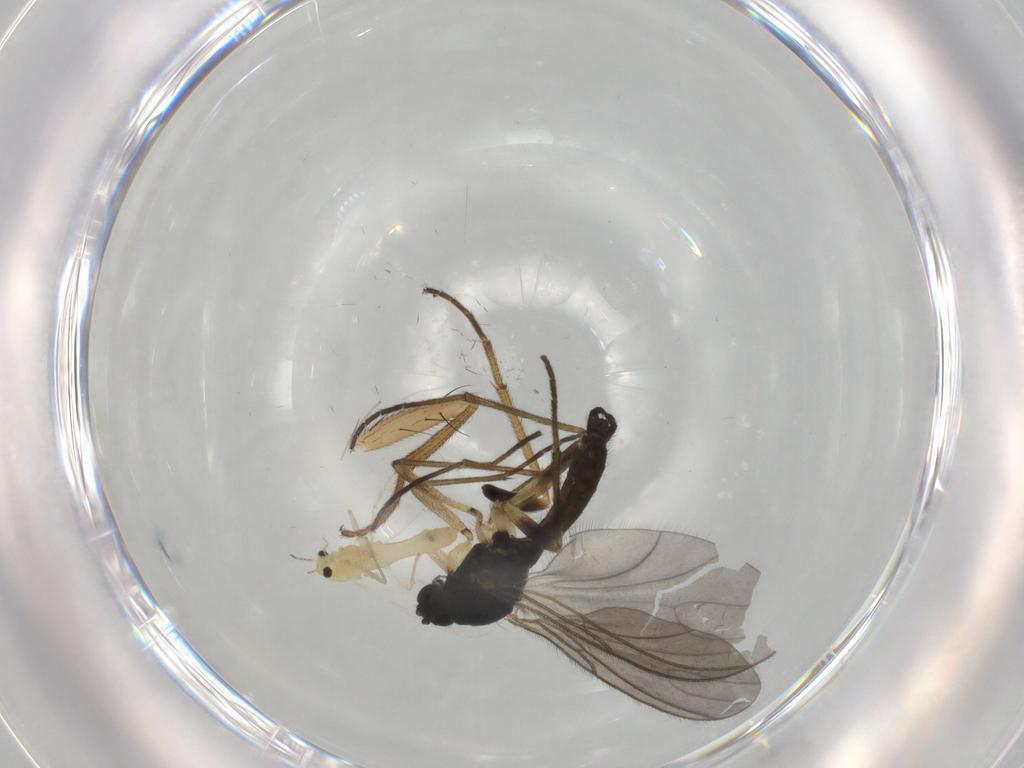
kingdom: Animalia
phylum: Arthropoda
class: Insecta
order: Diptera
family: Chironomidae
